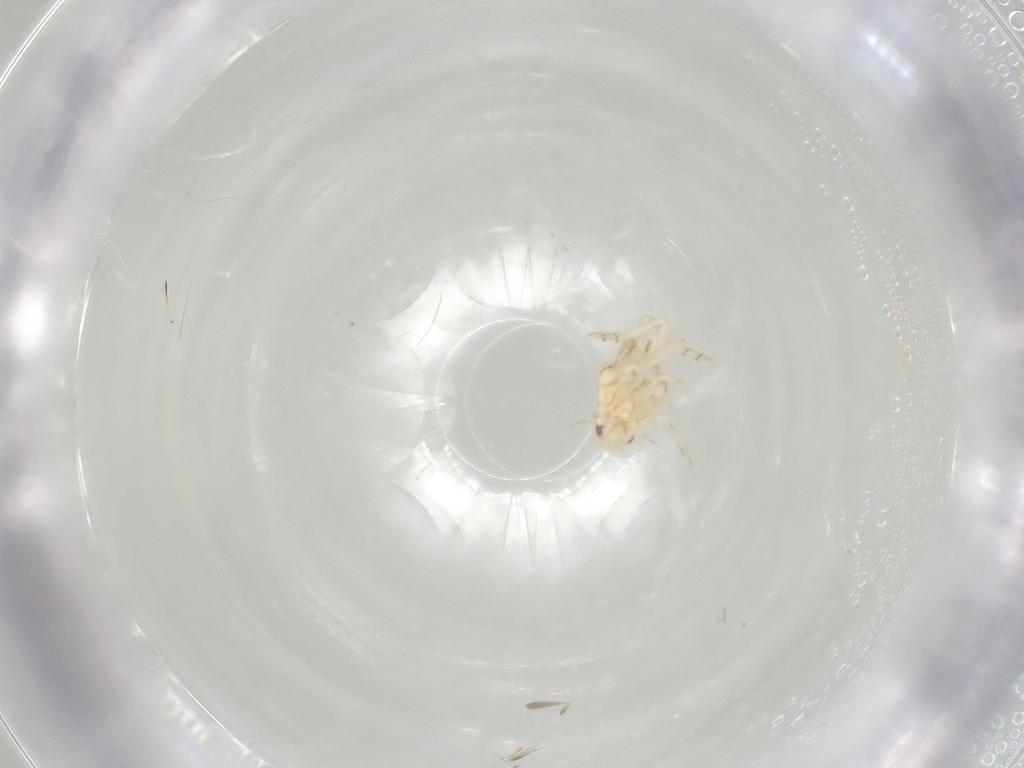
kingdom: Animalia
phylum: Arthropoda
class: Insecta
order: Hemiptera
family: Flatidae
